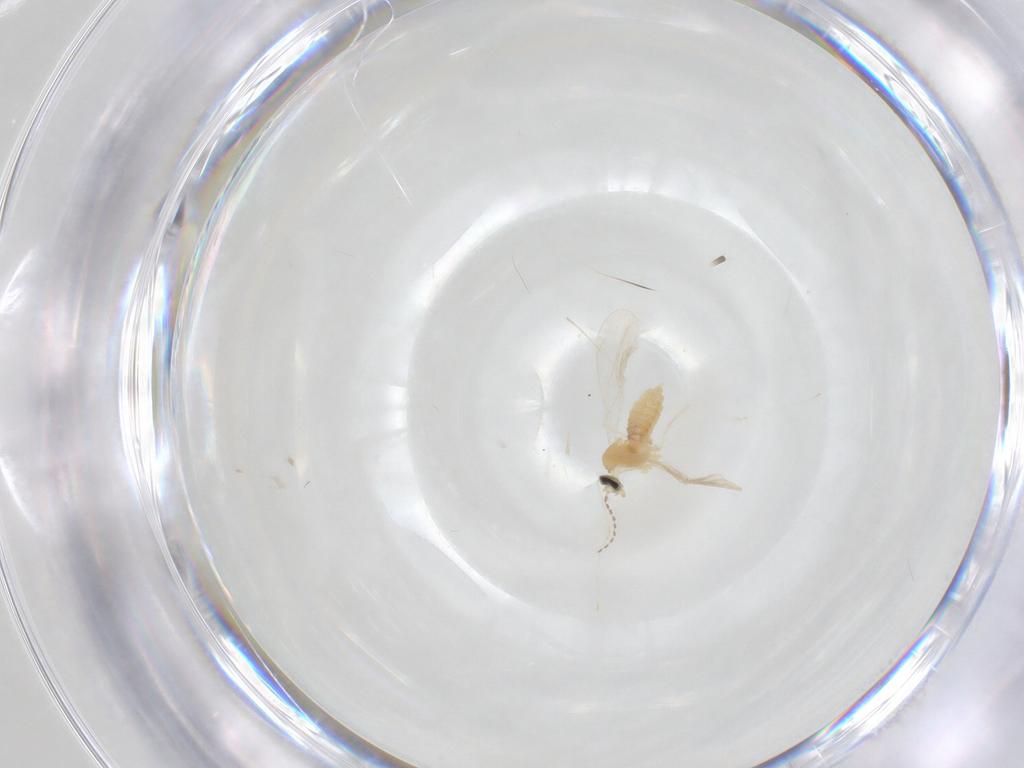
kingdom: Animalia
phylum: Arthropoda
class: Insecta
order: Diptera
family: Cecidomyiidae
